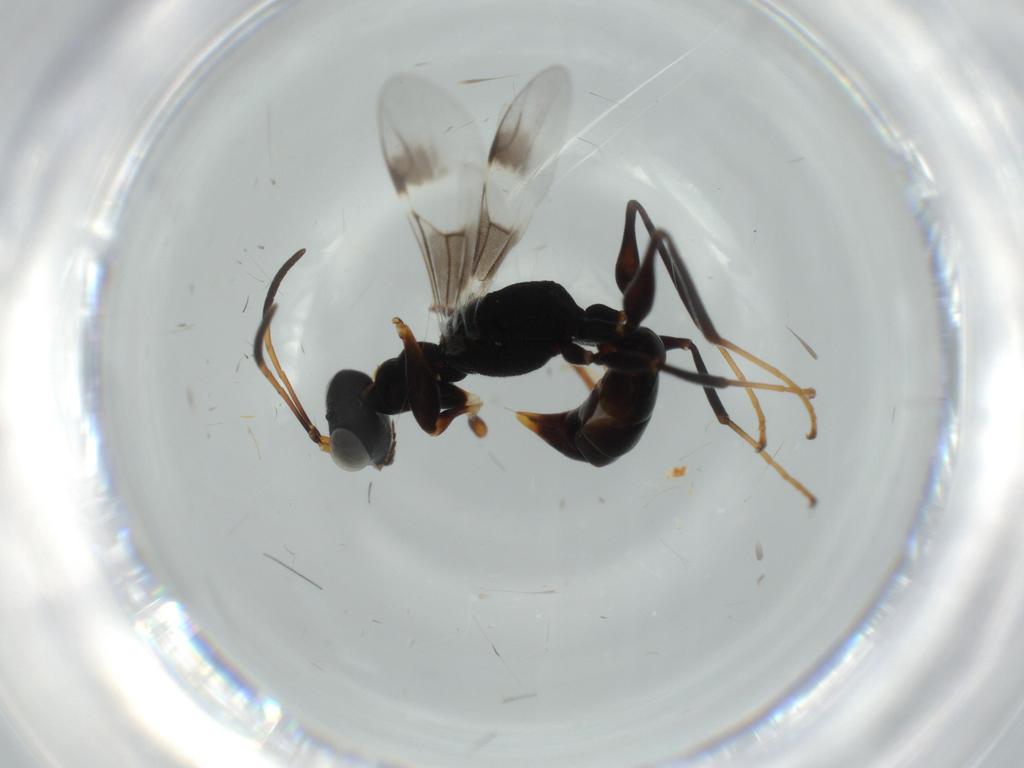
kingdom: Animalia
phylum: Arthropoda
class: Insecta
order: Hymenoptera
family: Dryinidae
